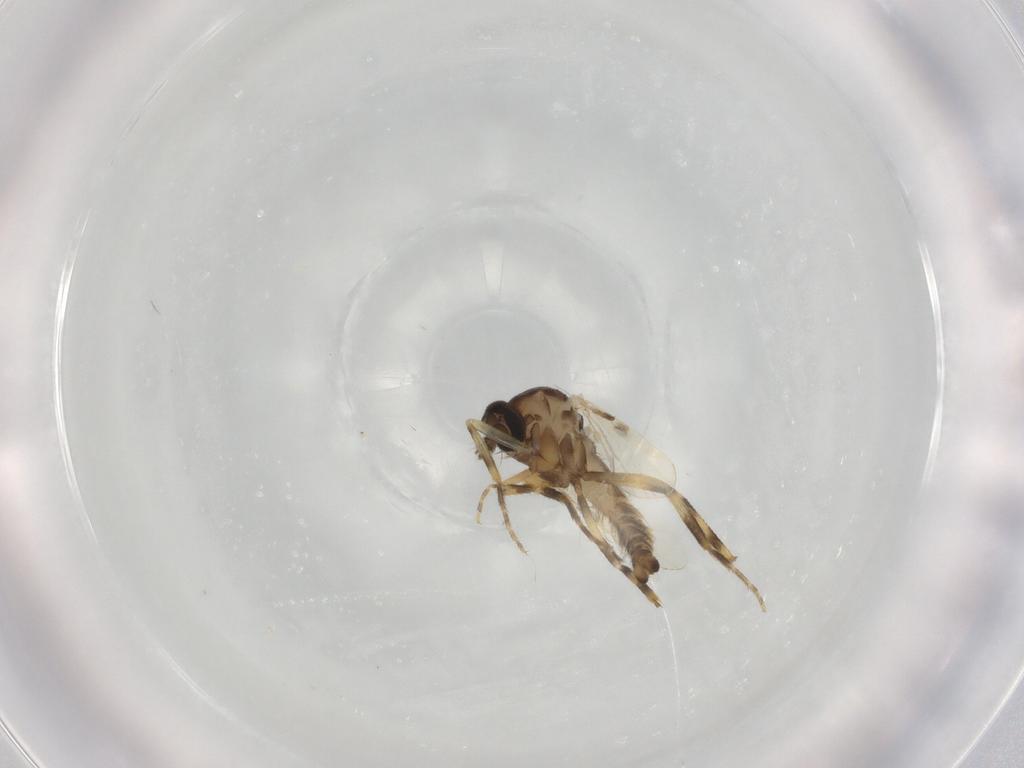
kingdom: Animalia
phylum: Arthropoda
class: Insecta
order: Diptera
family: Ceratopogonidae
